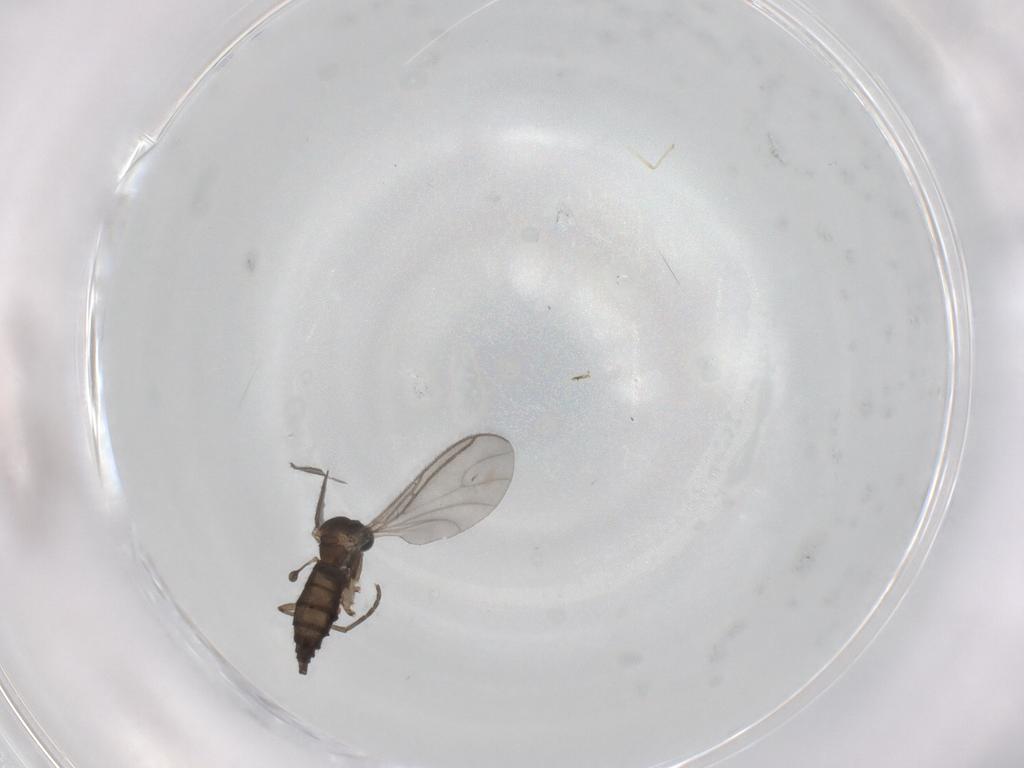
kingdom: Animalia
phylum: Arthropoda
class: Insecta
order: Diptera
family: Cecidomyiidae
